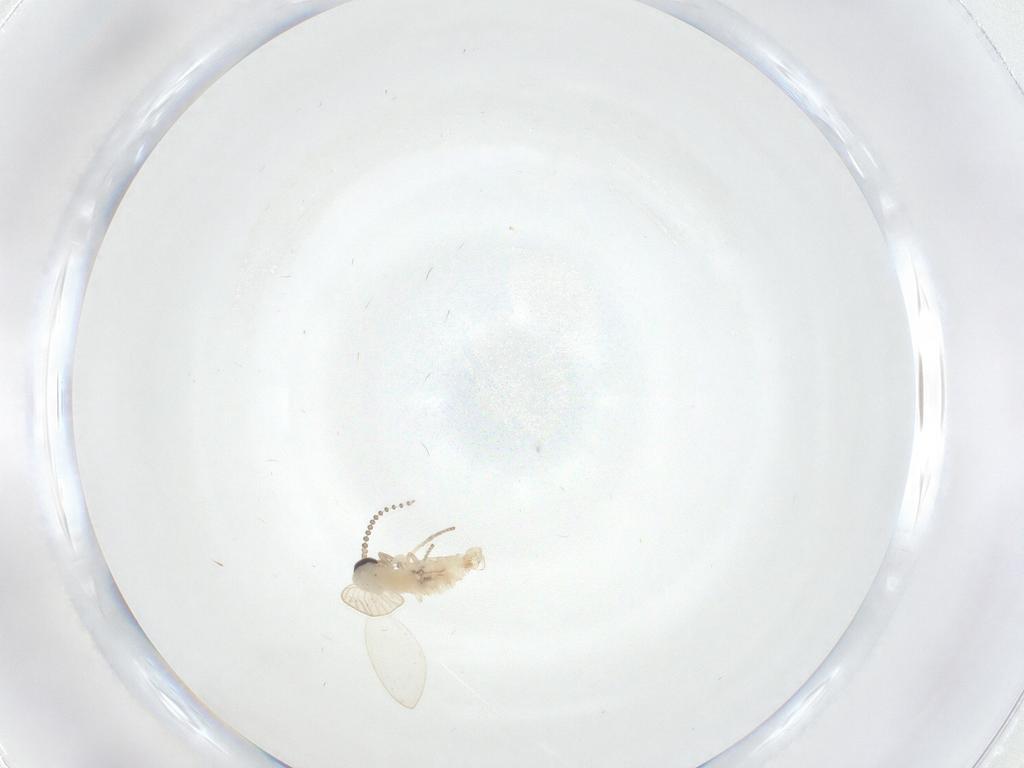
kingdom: Animalia
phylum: Arthropoda
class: Insecta
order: Diptera
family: Psychodidae
